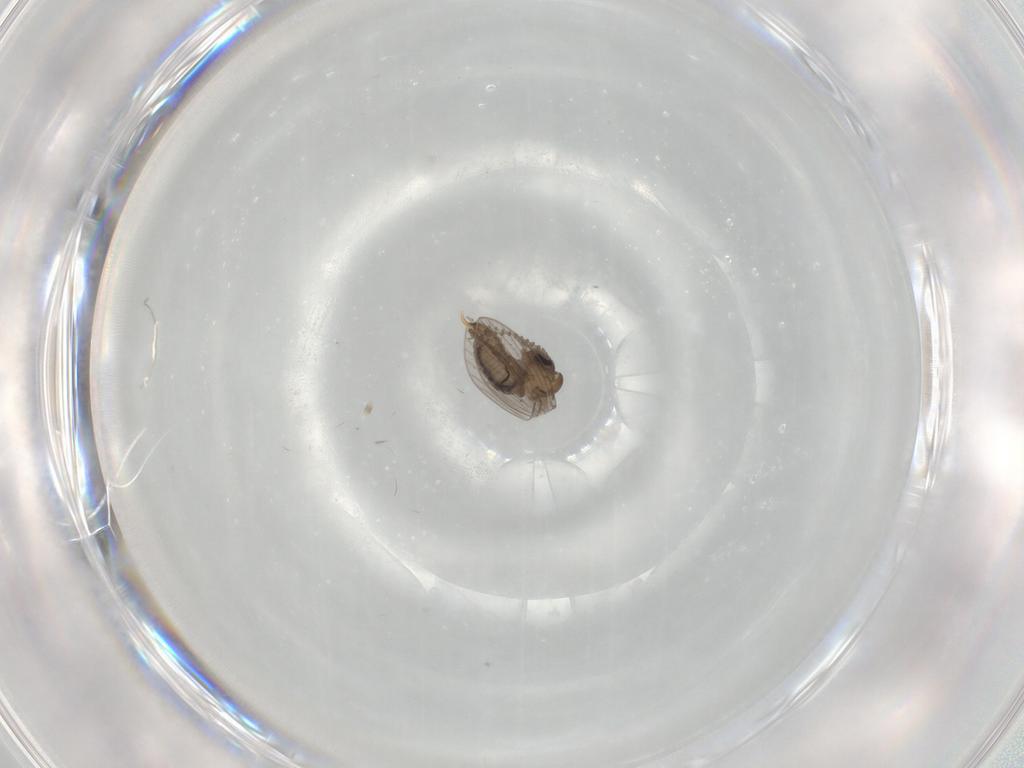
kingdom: Animalia
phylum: Arthropoda
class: Insecta
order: Diptera
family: Psychodidae
